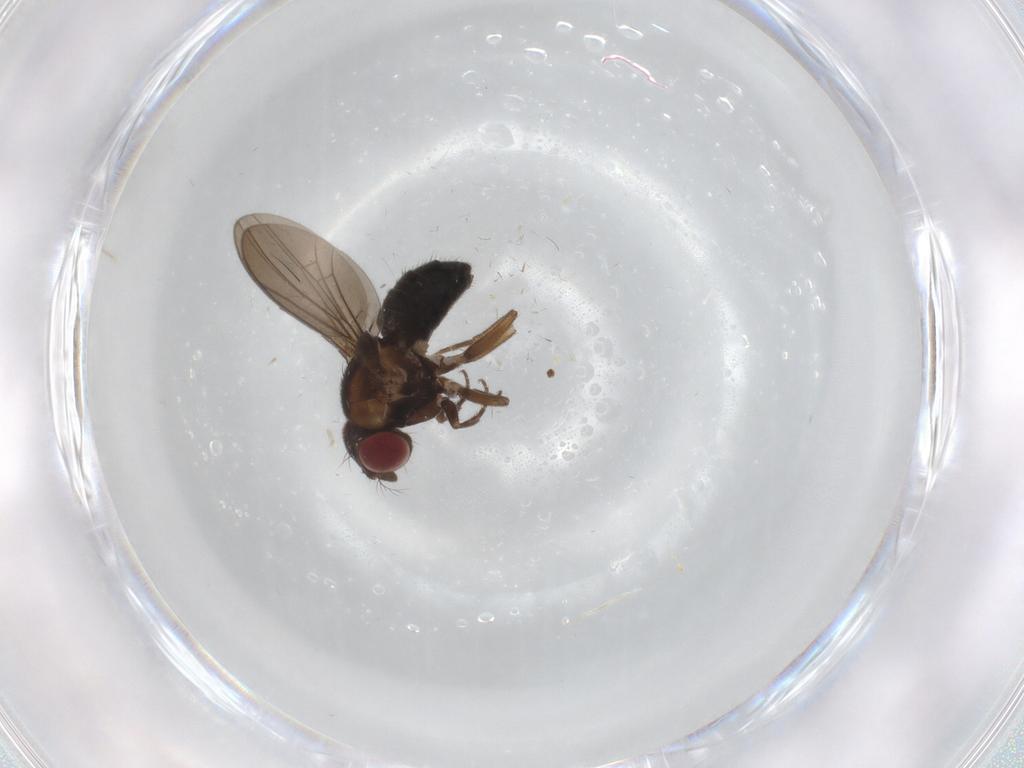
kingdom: Animalia
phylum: Arthropoda
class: Insecta
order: Diptera
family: Drosophilidae
